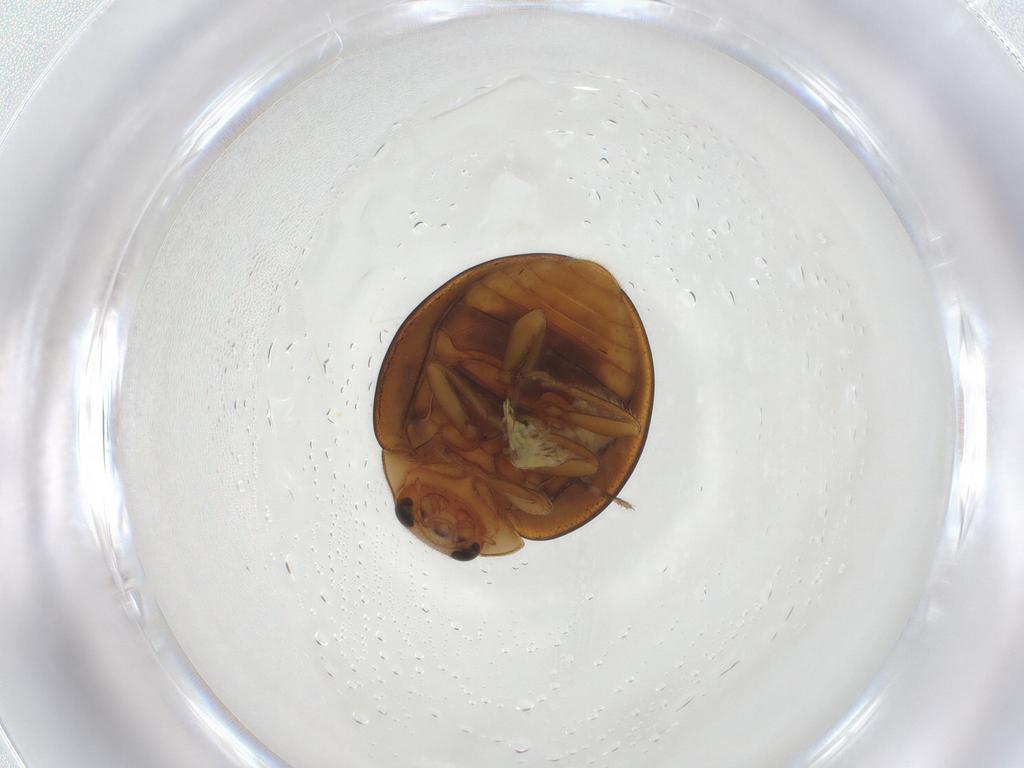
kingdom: Animalia
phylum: Arthropoda
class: Insecta
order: Coleoptera
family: Coccinellidae
